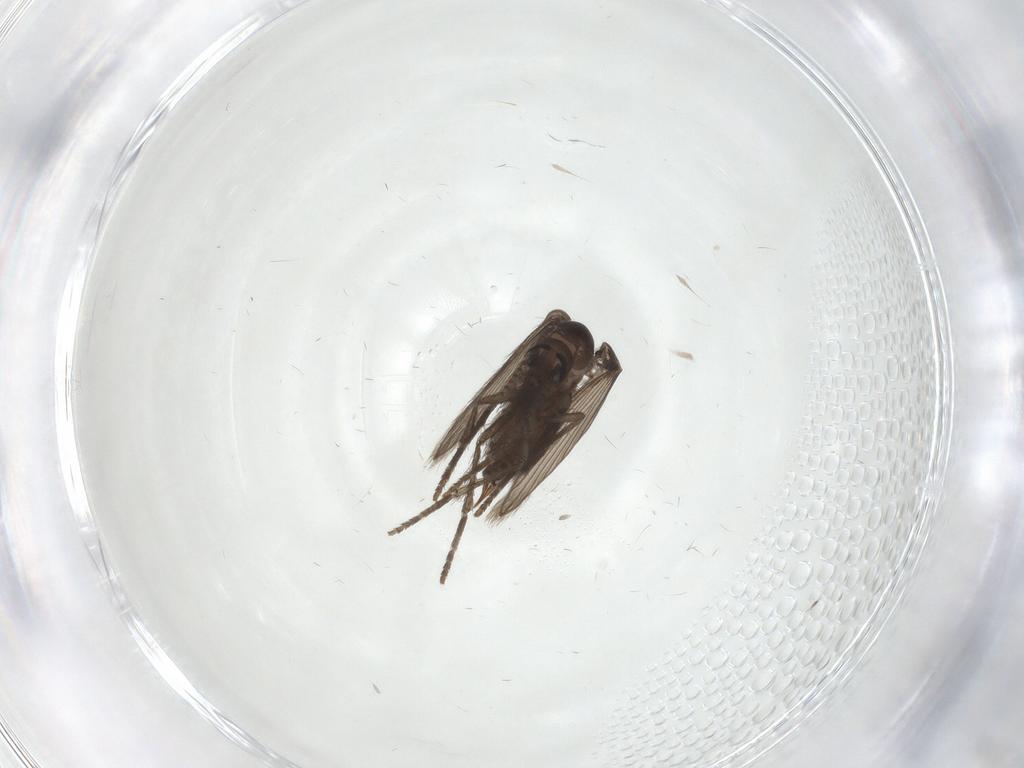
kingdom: Animalia
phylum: Arthropoda
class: Insecta
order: Diptera
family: Psychodidae
